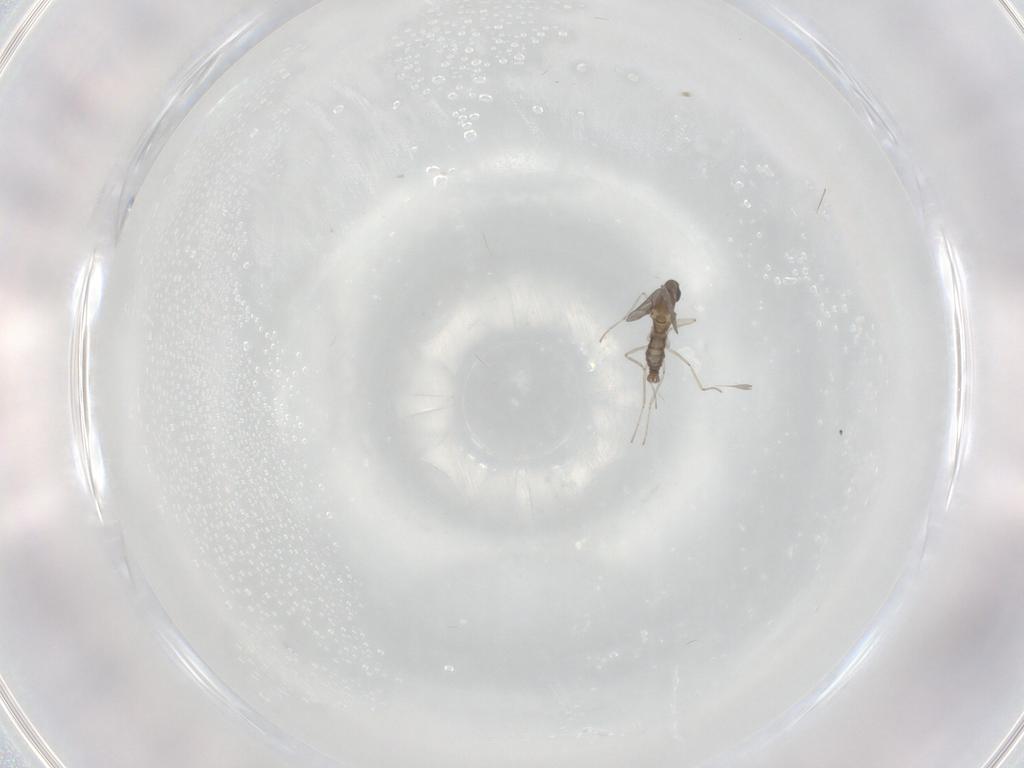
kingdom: Animalia
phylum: Arthropoda
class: Insecta
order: Diptera
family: Cecidomyiidae
